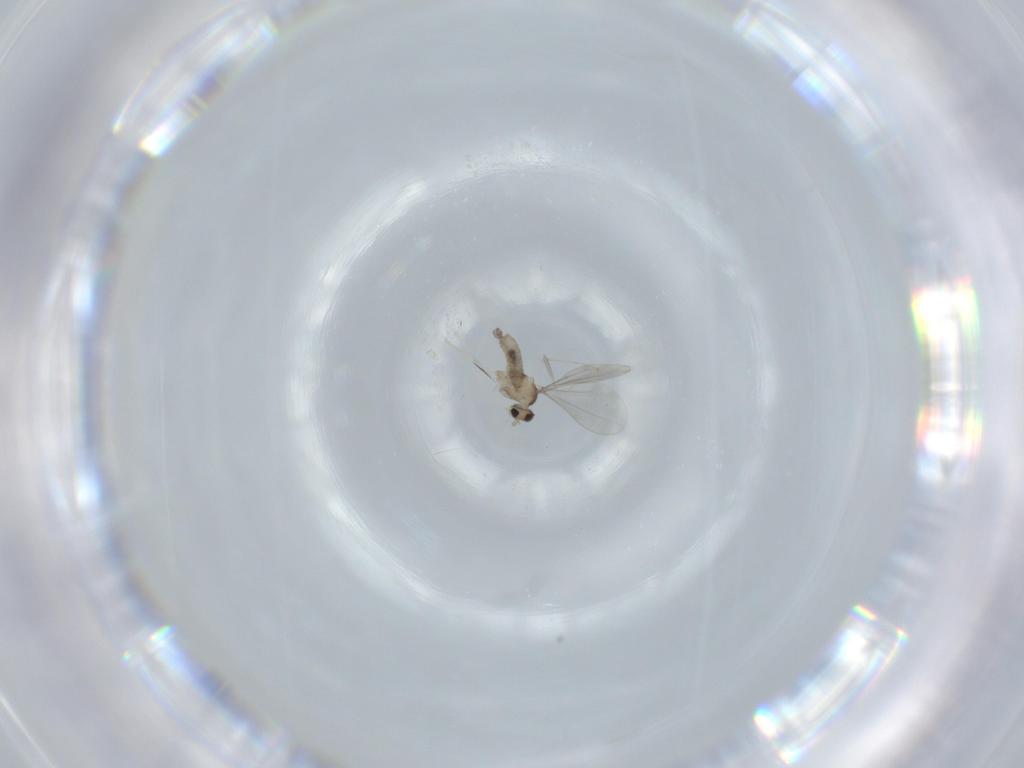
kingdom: Animalia
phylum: Arthropoda
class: Insecta
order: Diptera
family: Cecidomyiidae
